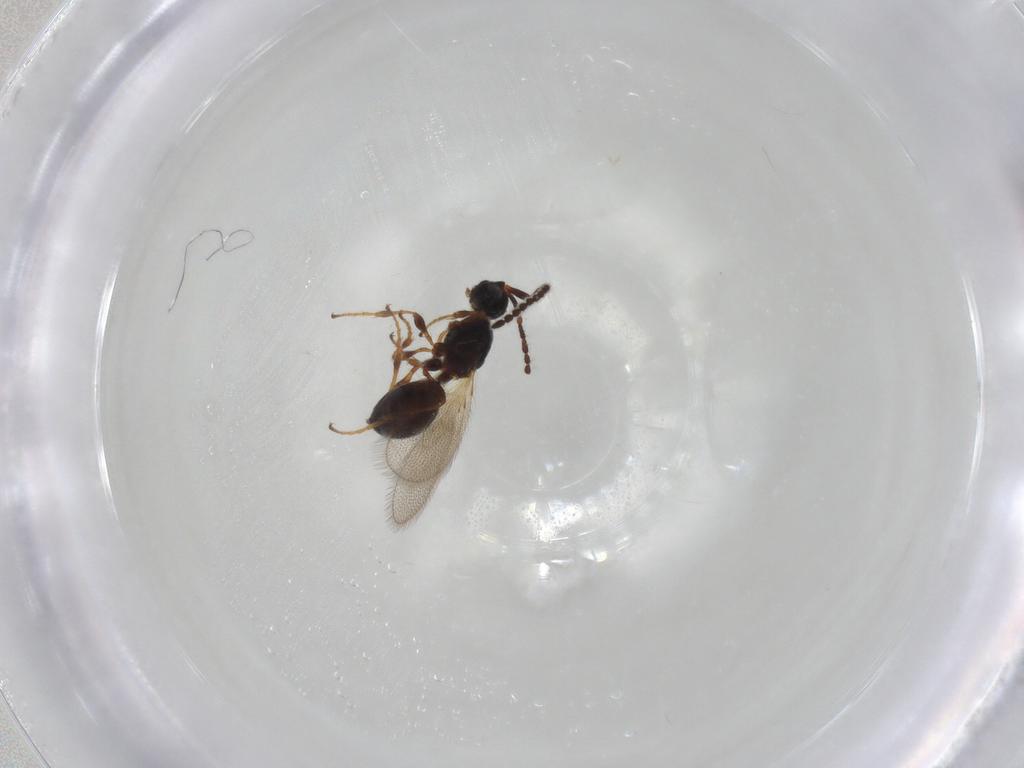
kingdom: Animalia
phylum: Arthropoda
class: Insecta
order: Hymenoptera
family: Diapriidae
